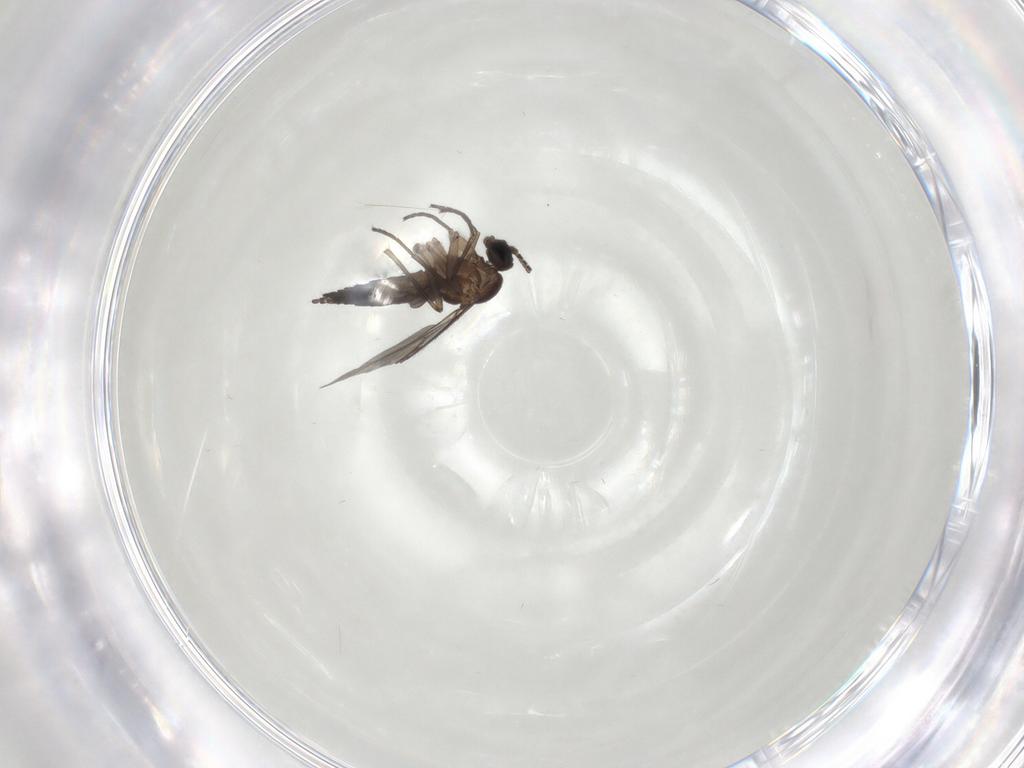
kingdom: Animalia
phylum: Arthropoda
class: Insecta
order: Diptera
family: Sciaridae
